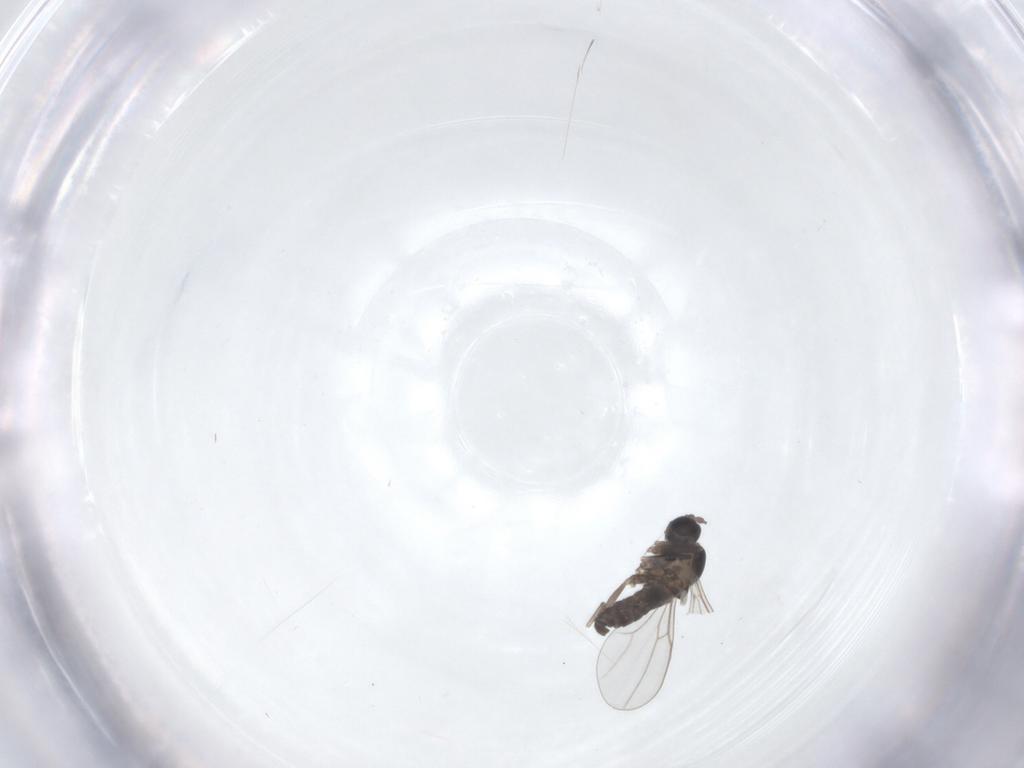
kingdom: Animalia
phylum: Arthropoda
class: Insecta
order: Diptera
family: Cecidomyiidae
